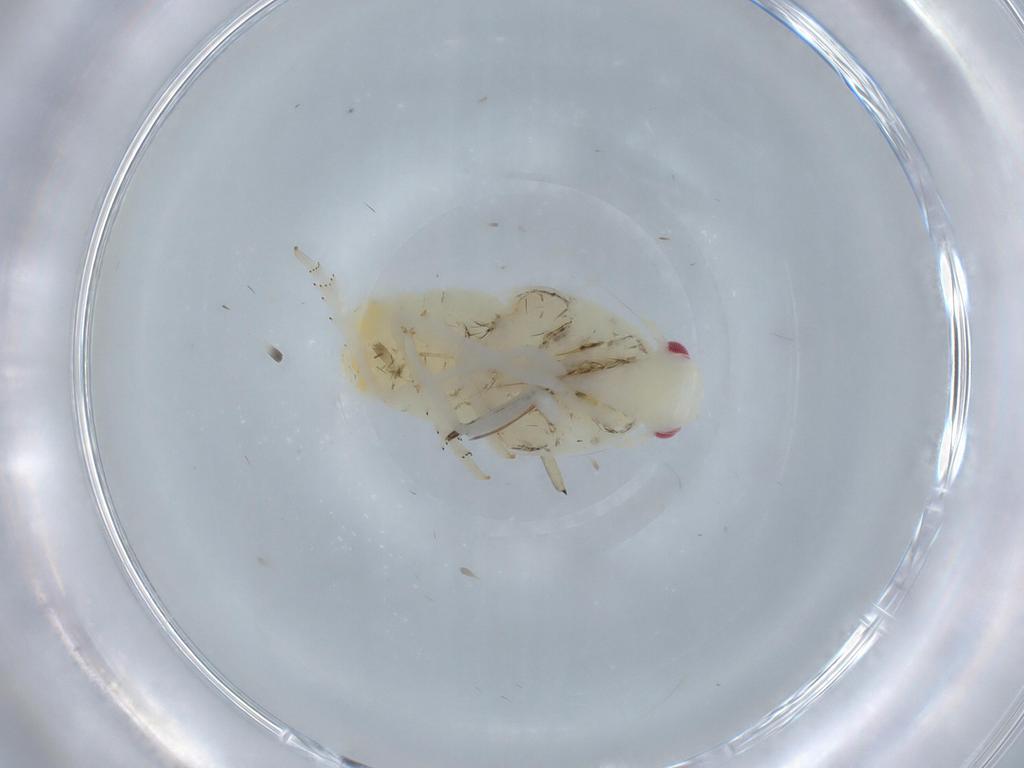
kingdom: Animalia
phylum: Arthropoda
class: Insecta
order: Hemiptera
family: Flatidae
